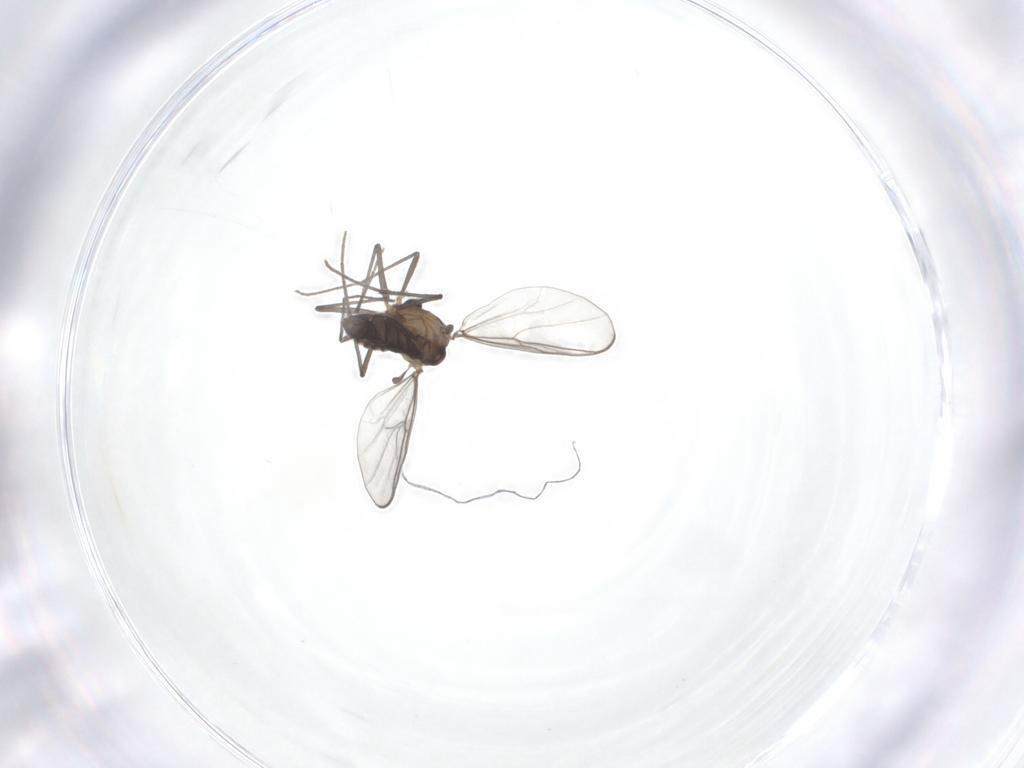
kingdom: Animalia
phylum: Arthropoda
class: Insecta
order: Diptera
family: Chironomidae
